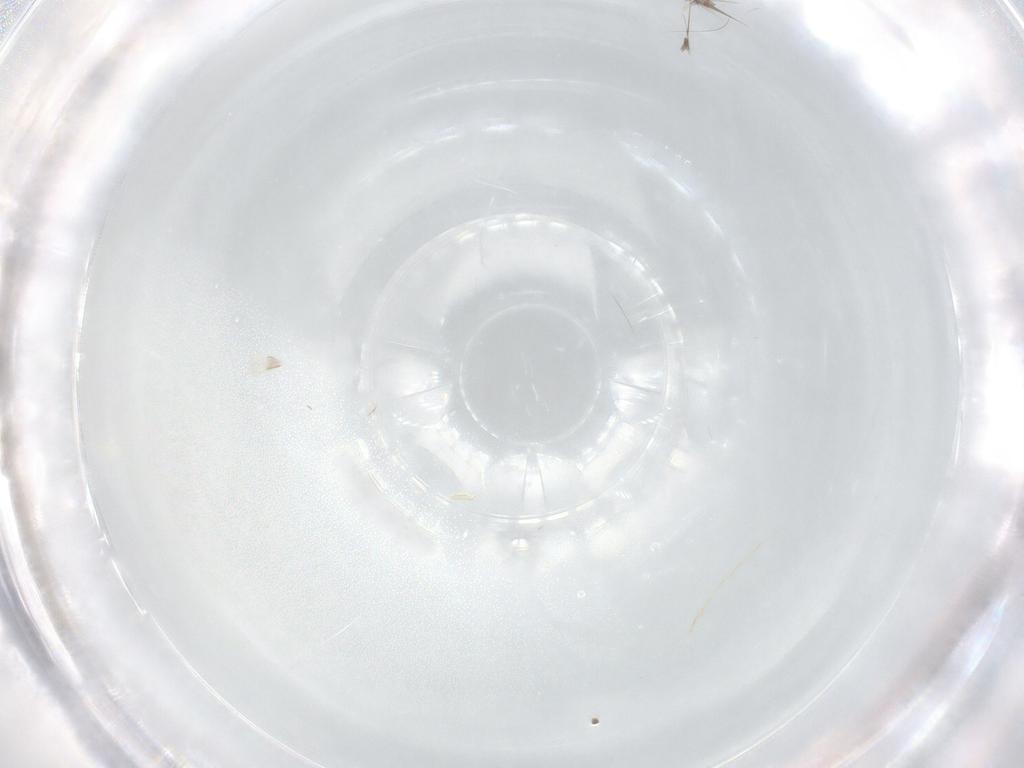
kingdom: Animalia
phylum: Arthropoda
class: Insecta
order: Hymenoptera
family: Aphelinidae
